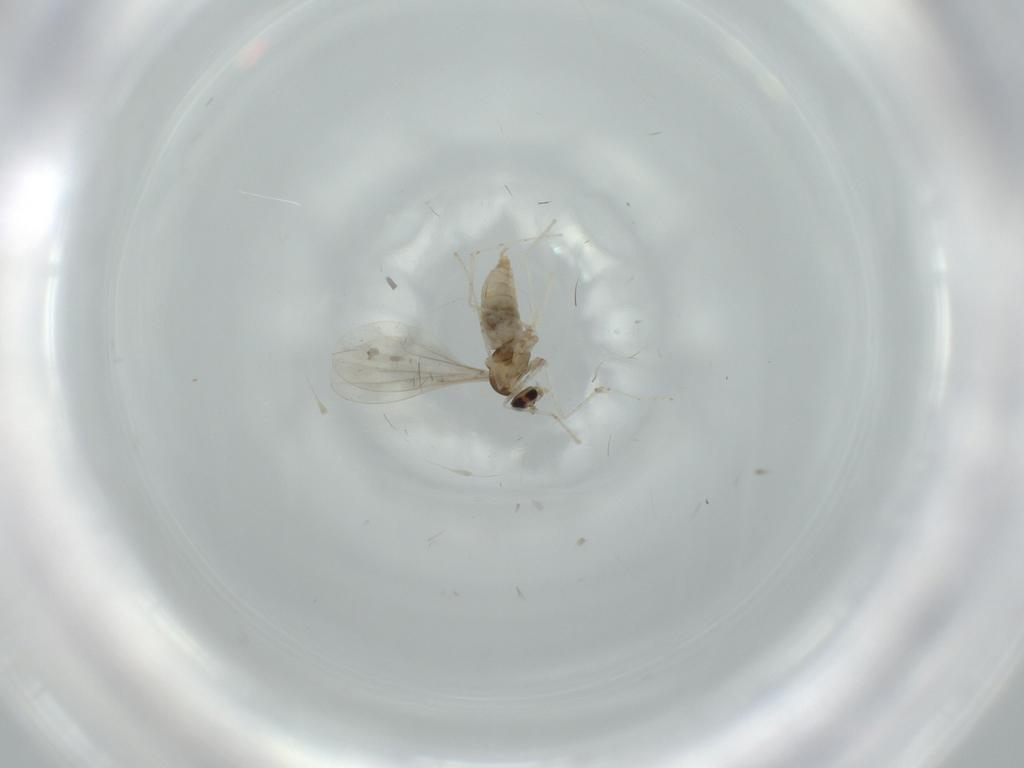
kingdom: Animalia
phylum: Arthropoda
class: Insecta
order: Diptera
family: Cecidomyiidae
